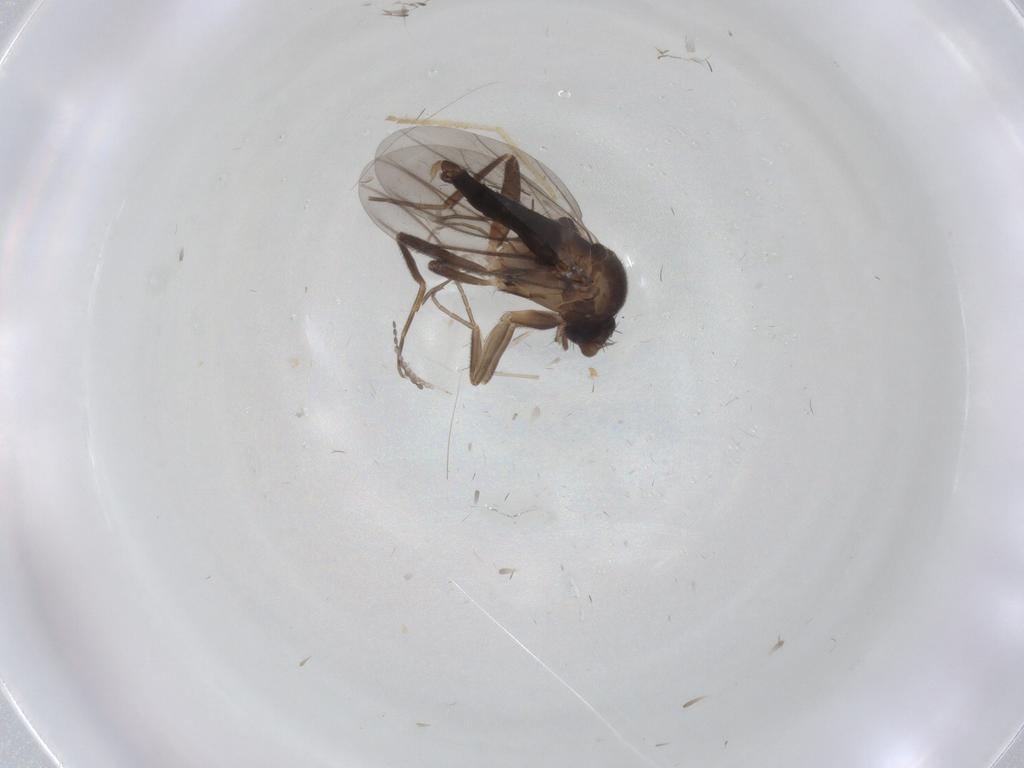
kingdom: Animalia
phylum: Arthropoda
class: Insecta
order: Diptera
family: Cecidomyiidae
